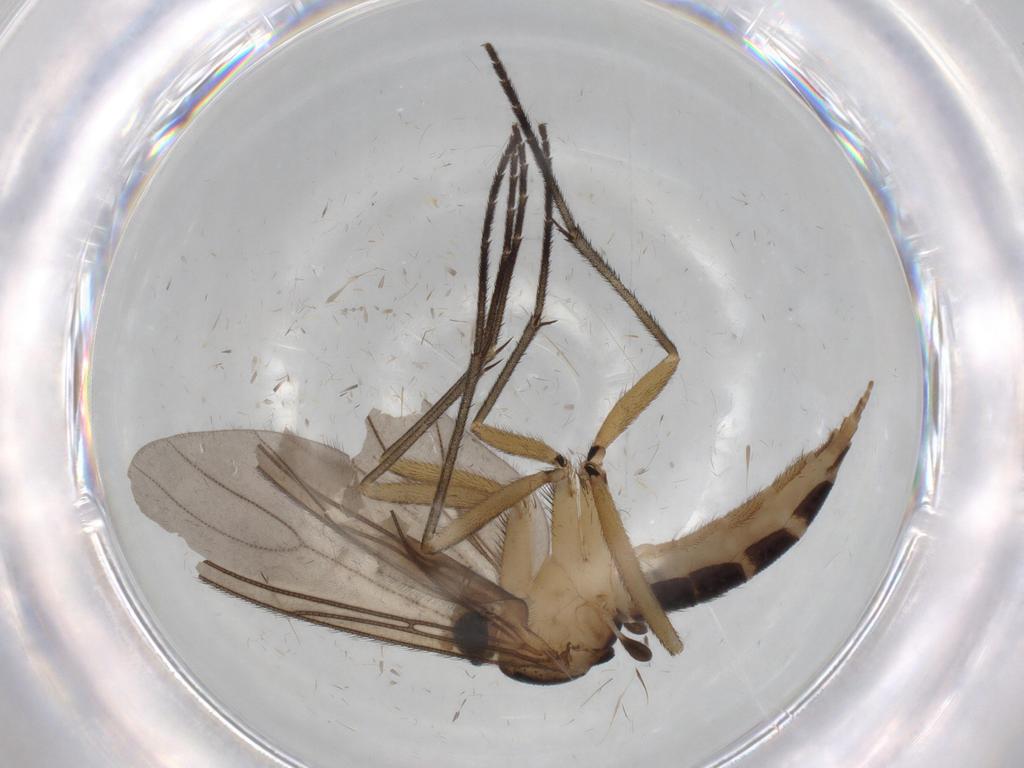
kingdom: Animalia
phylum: Arthropoda
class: Insecta
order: Diptera
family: Sciaridae
